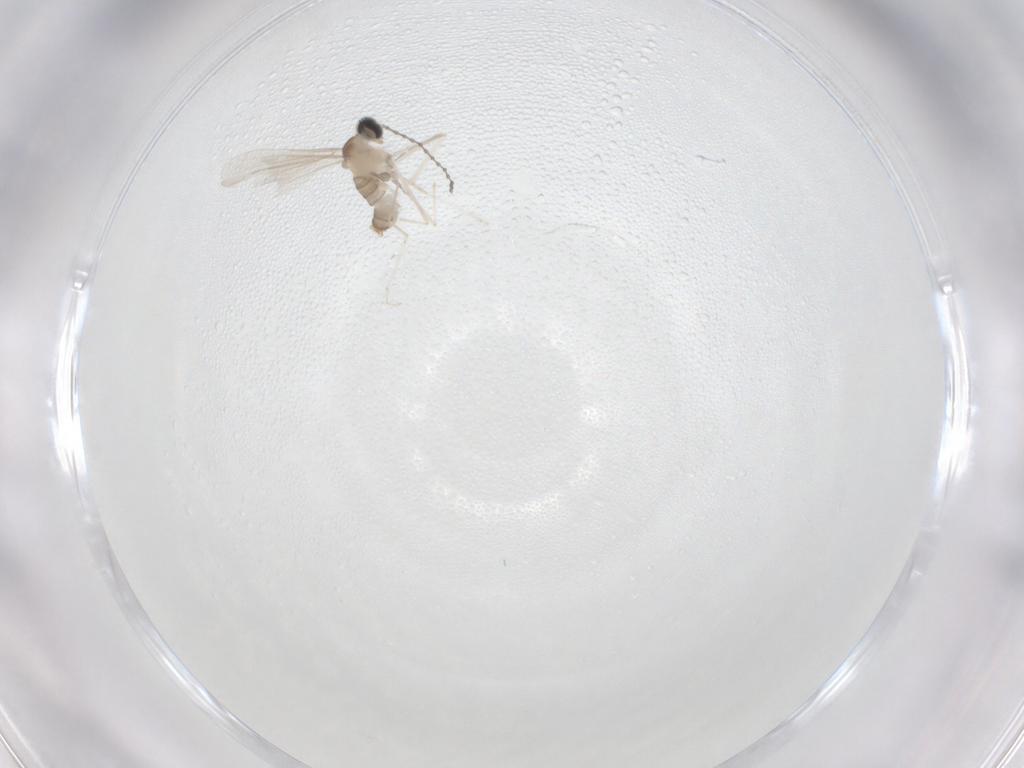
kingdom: Animalia
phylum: Arthropoda
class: Insecta
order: Diptera
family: Cecidomyiidae
